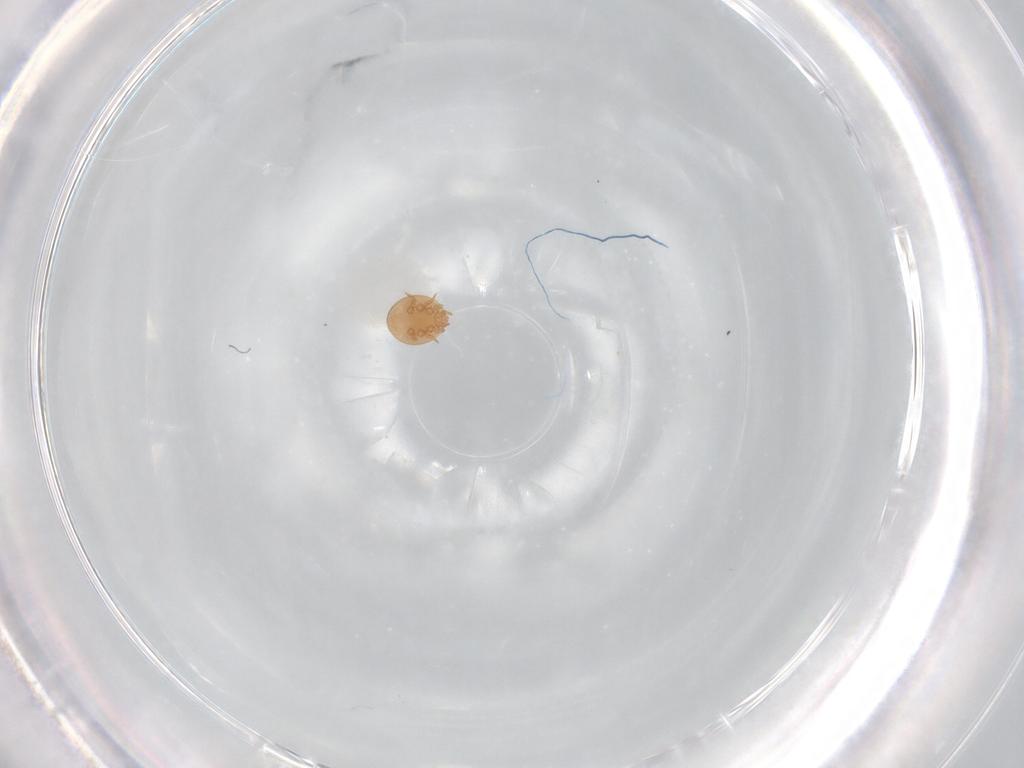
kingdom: Animalia
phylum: Arthropoda
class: Arachnida
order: Mesostigmata
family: Trematuridae
